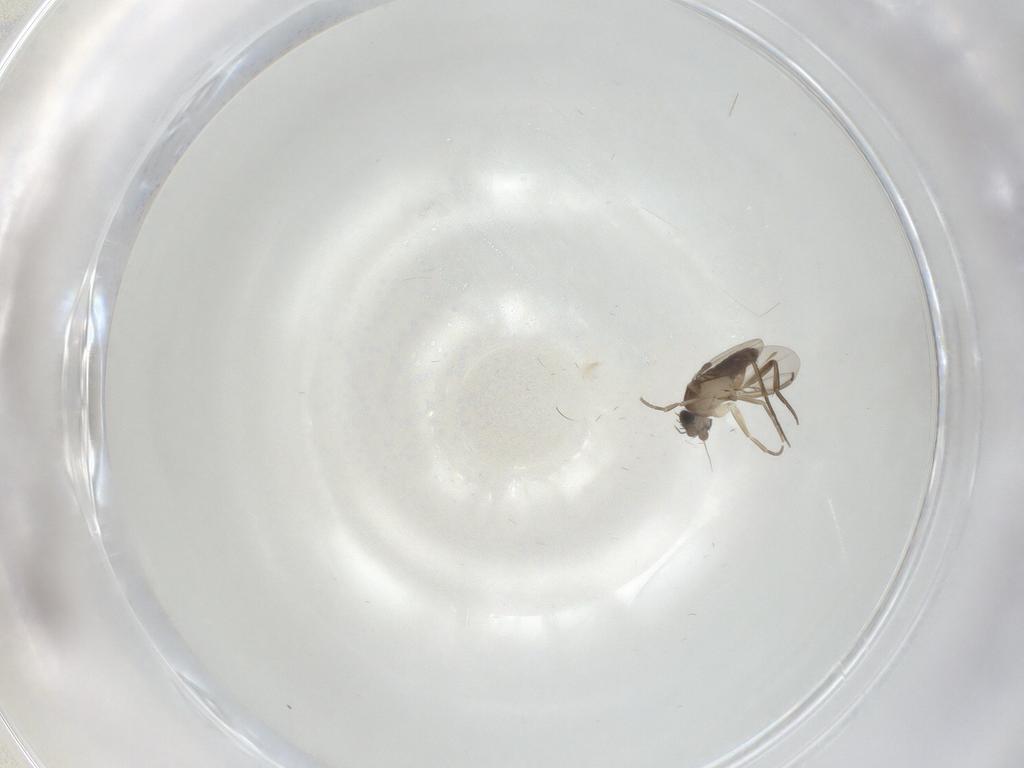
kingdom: Animalia
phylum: Arthropoda
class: Insecta
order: Diptera
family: Phoridae
